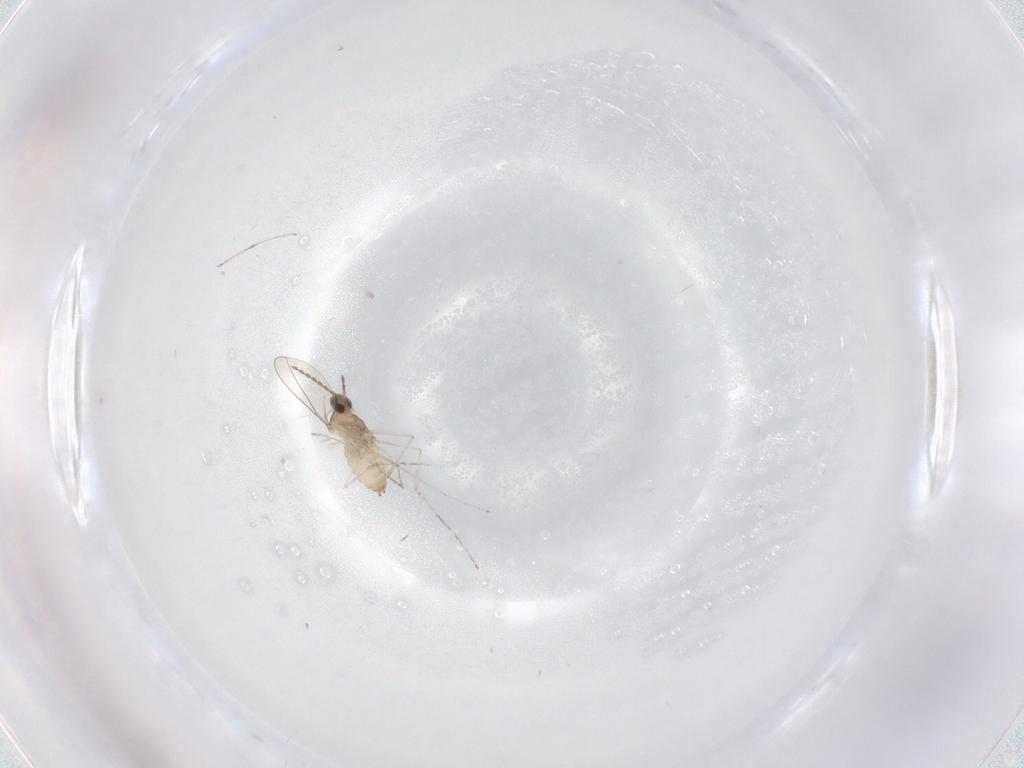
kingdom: Animalia
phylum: Arthropoda
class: Insecta
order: Diptera
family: Cecidomyiidae
